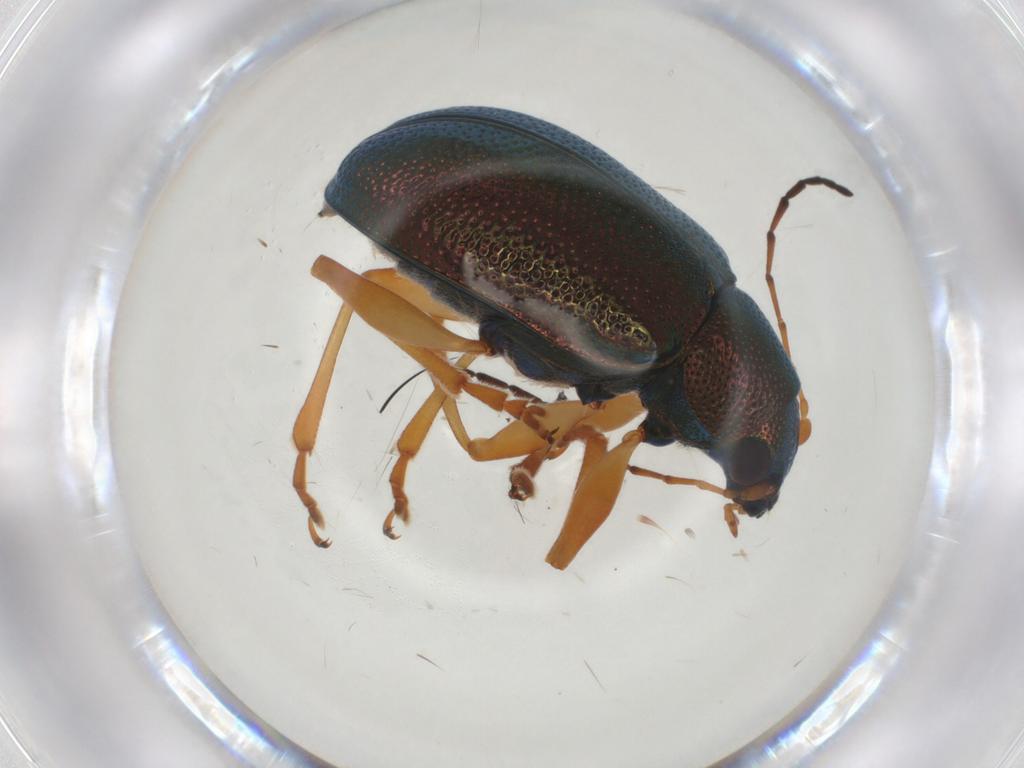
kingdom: Animalia
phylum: Arthropoda
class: Insecta
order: Coleoptera
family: Chrysomelidae
